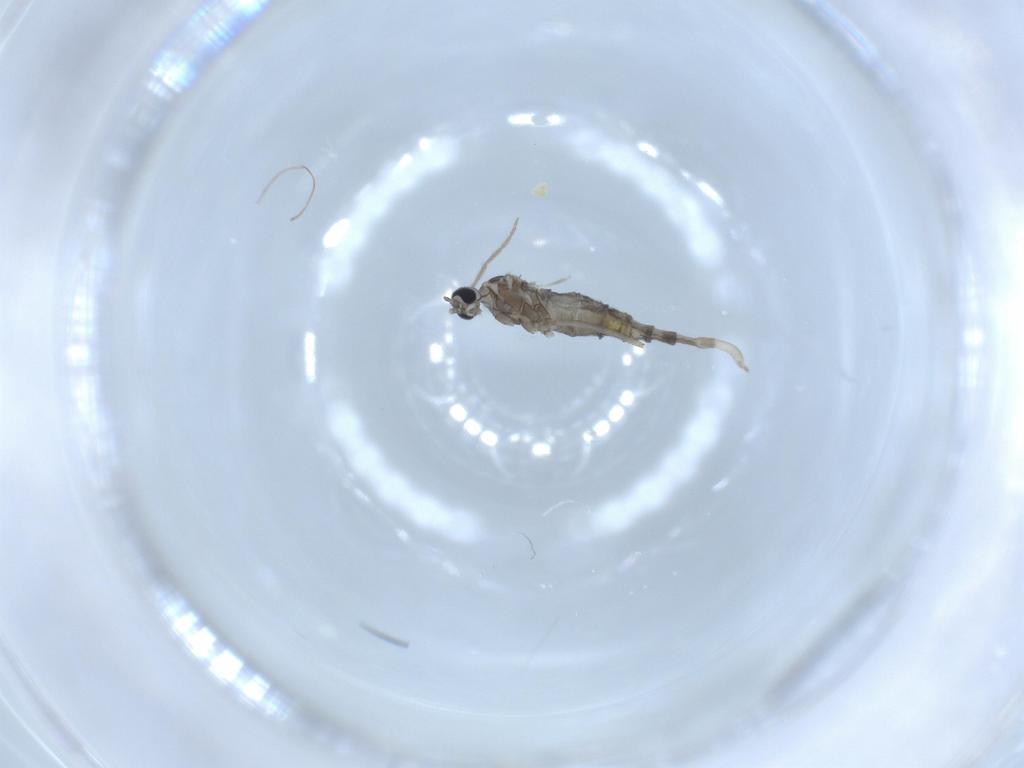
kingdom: Animalia
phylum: Arthropoda
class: Insecta
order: Diptera
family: Cecidomyiidae
